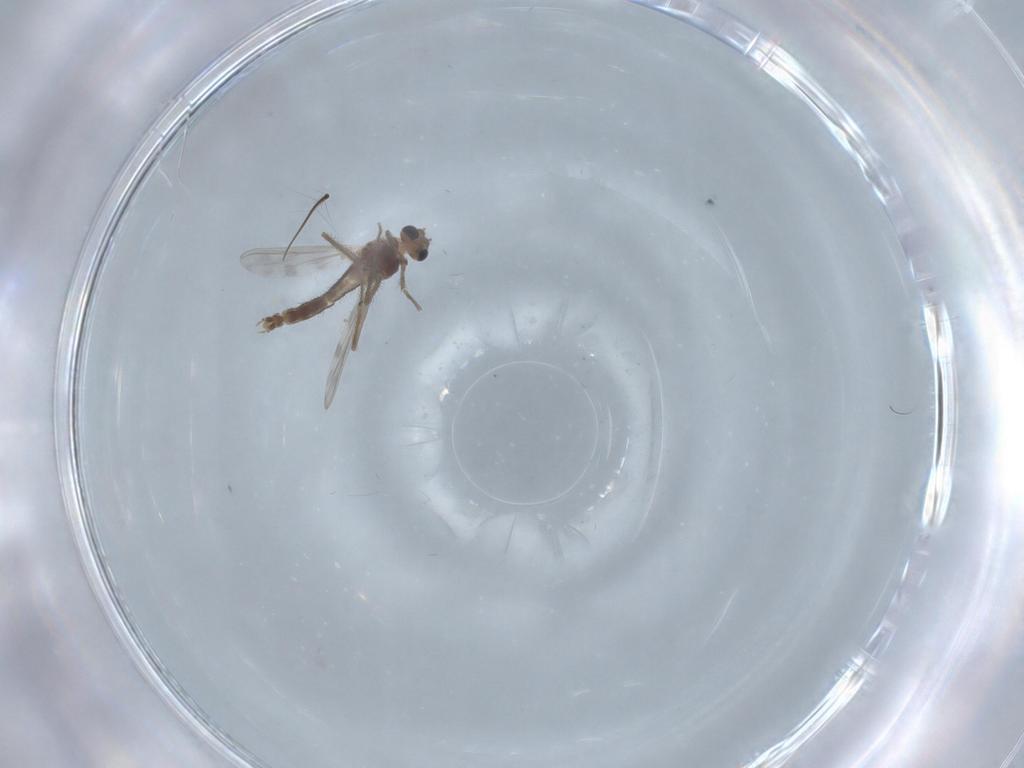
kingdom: Animalia
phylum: Arthropoda
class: Insecta
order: Diptera
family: Chironomidae
